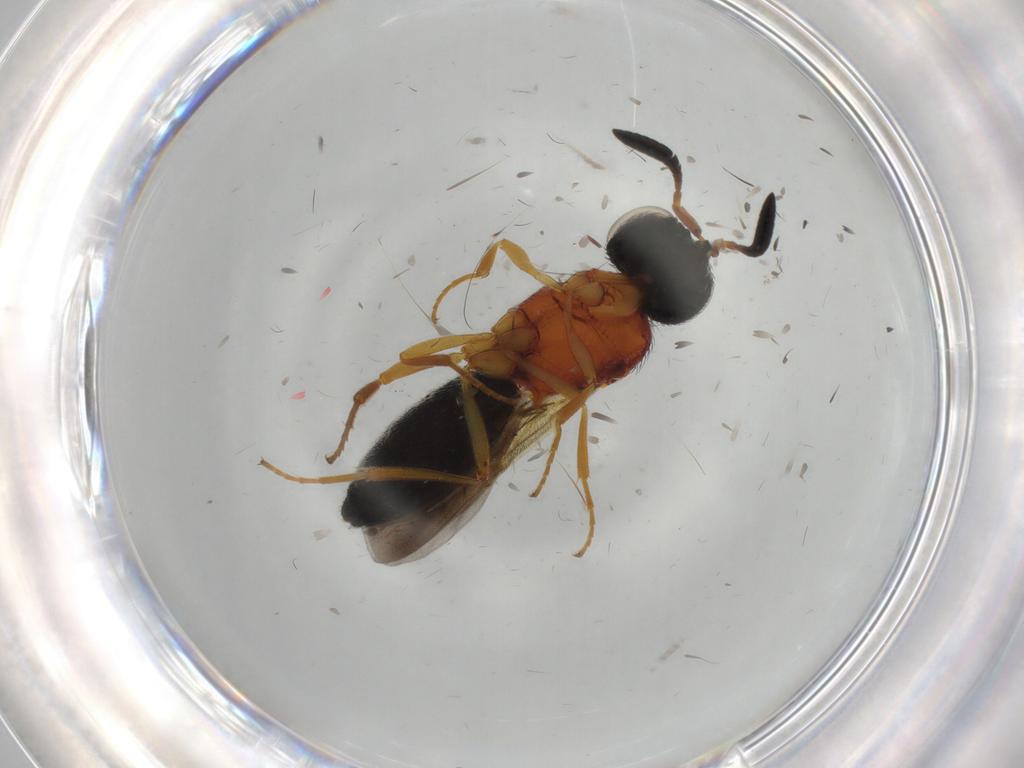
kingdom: Animalia
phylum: Arthropoda
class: Insecta
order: Hymenoptera
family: Scelionidae
